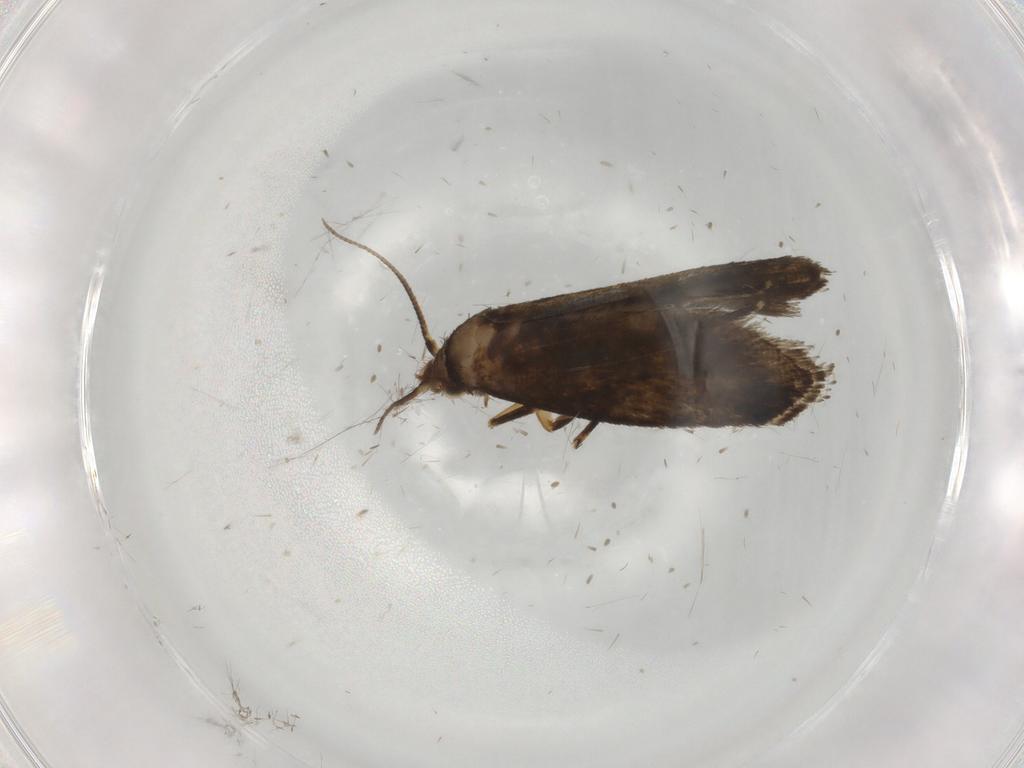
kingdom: Animalia
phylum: Arthropoda
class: Insecta
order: Lepidoptera
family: Crambidae
